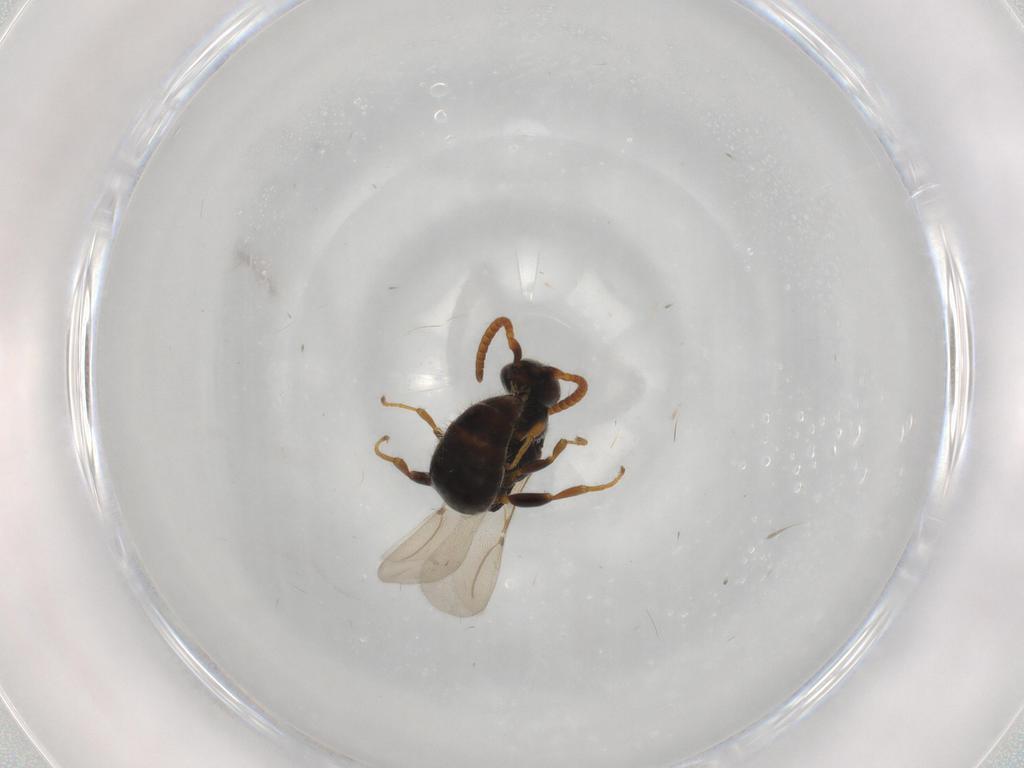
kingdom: Animalia
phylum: Arthropoda
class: Insecta
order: Hymenoptera
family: Bethylidae
